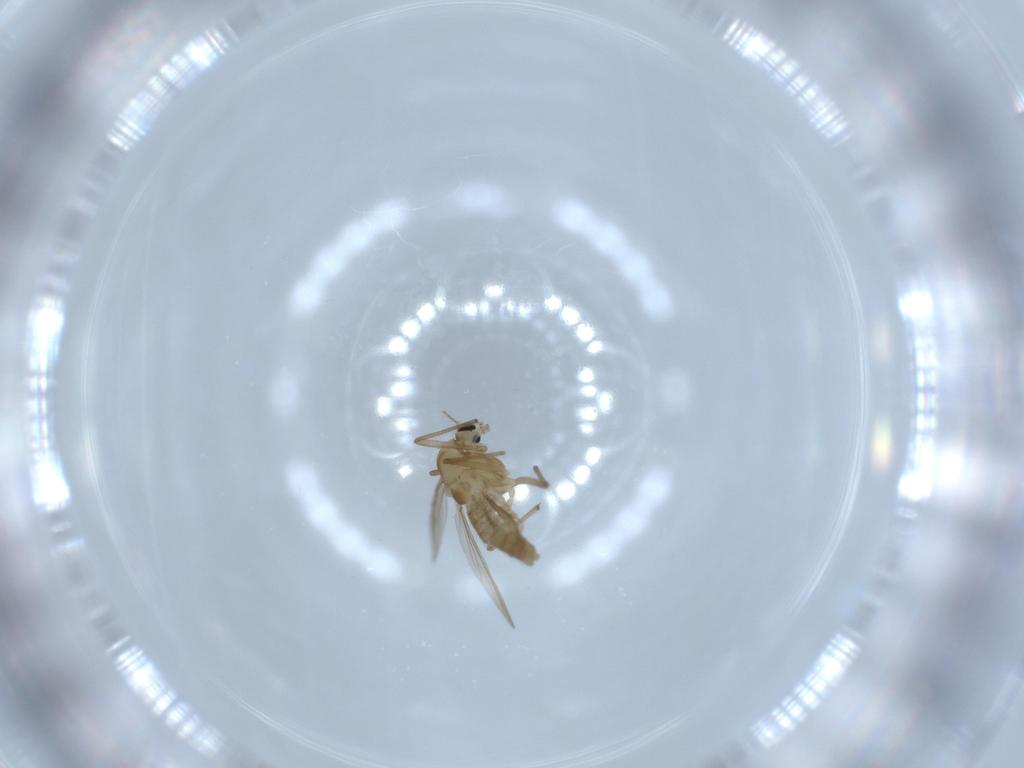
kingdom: Animalia
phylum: Arthropoda
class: Insecta
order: Diptera
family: Chironomidae
